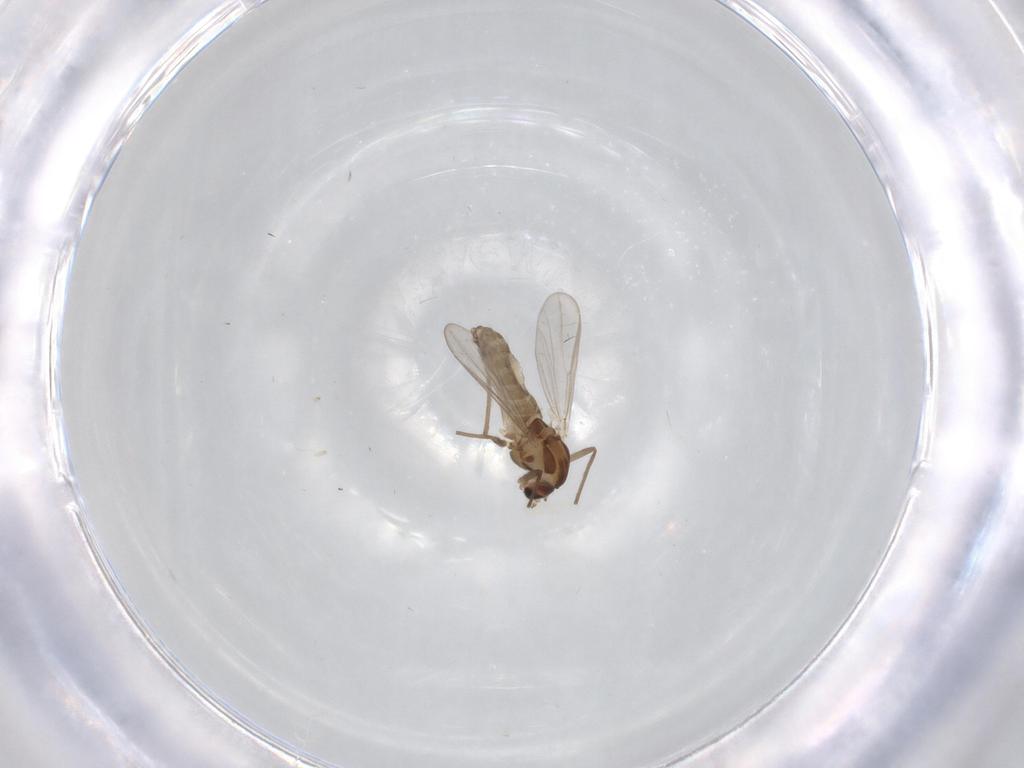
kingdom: Animalia
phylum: Arthropoda
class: Insecta
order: Diptera
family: Chironomidae
